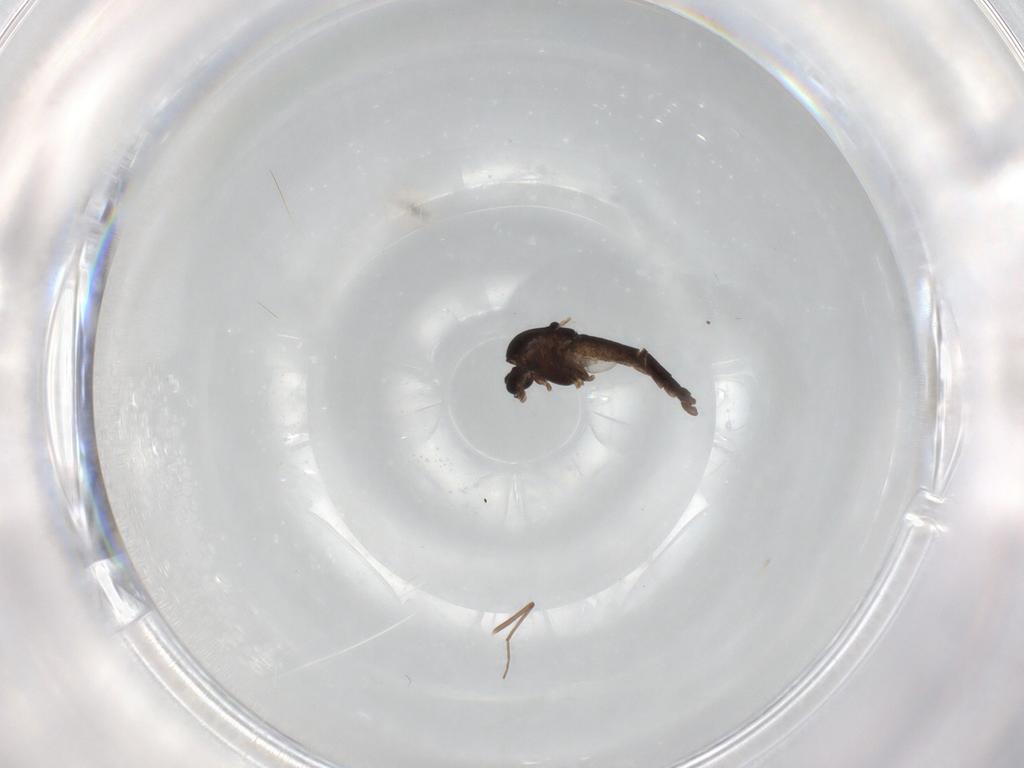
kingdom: Animalia
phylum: Arthropoda
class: Insecta
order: Diptera
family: Chironomidae
